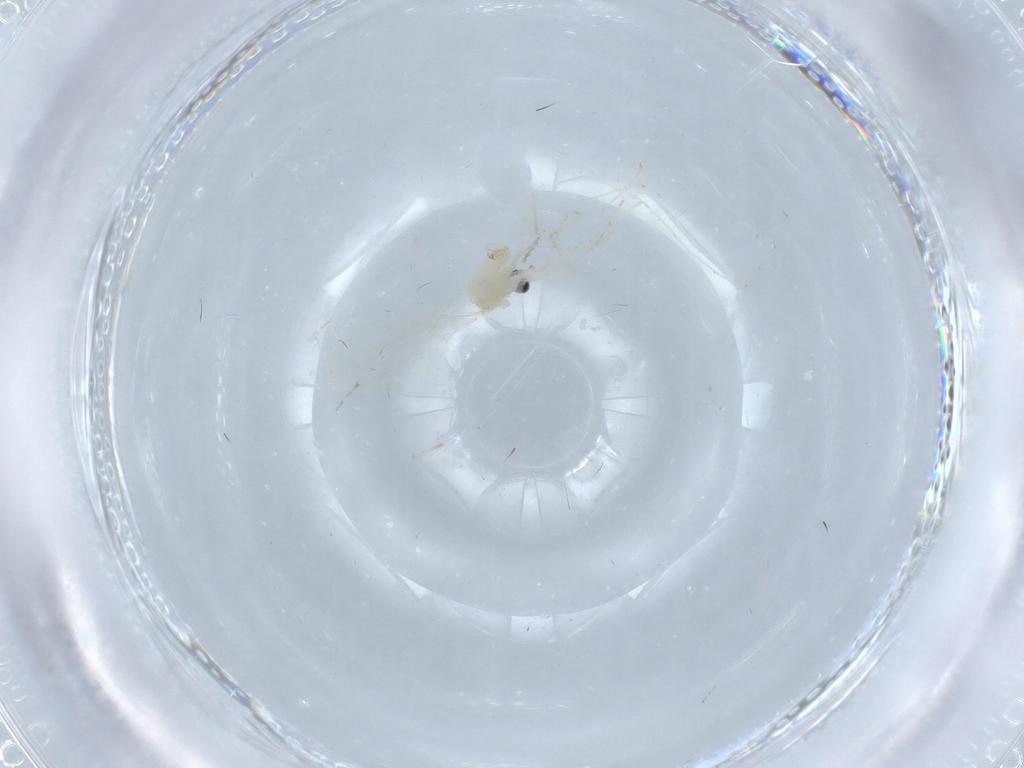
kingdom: Animalia
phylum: Arthropoda
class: Insecta
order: Diptera
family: Cecidomyiidae
